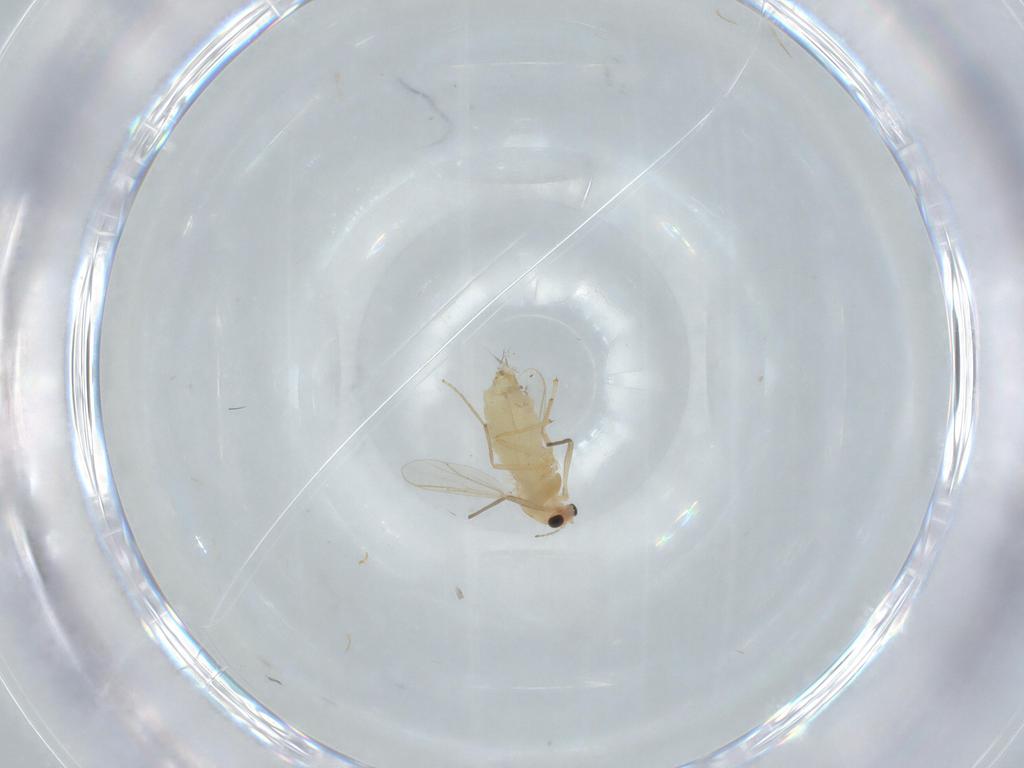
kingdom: Animalia
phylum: Arthropoda
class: Insecta
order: Diptera
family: Chironomidae
